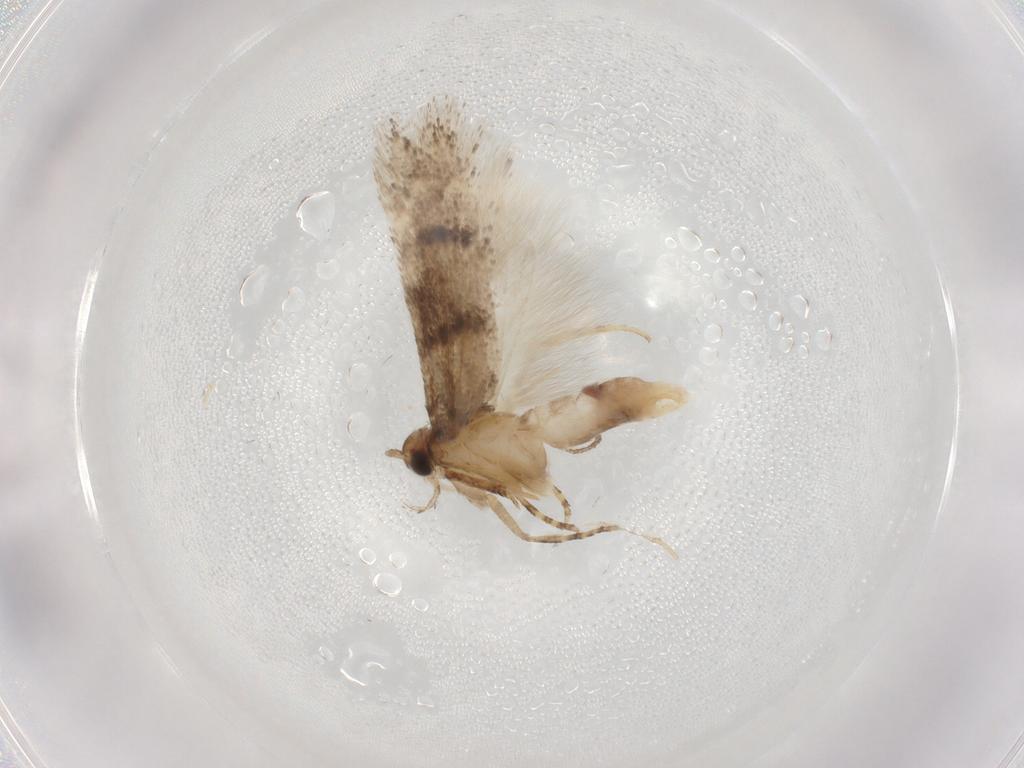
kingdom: Animalia
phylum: Arthropoda
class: Insecta
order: Lepidoptera
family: Gelechiidae
